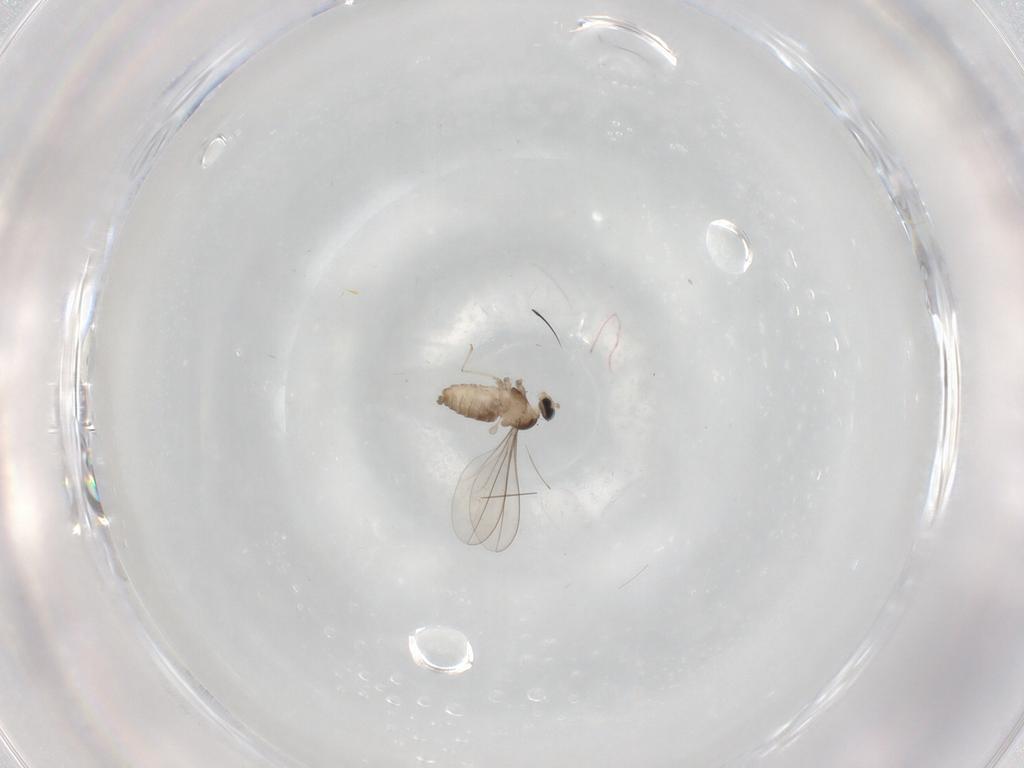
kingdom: Animalia
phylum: Arthropoda
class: Insecta
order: Diptera
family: Cecidomyiidae
